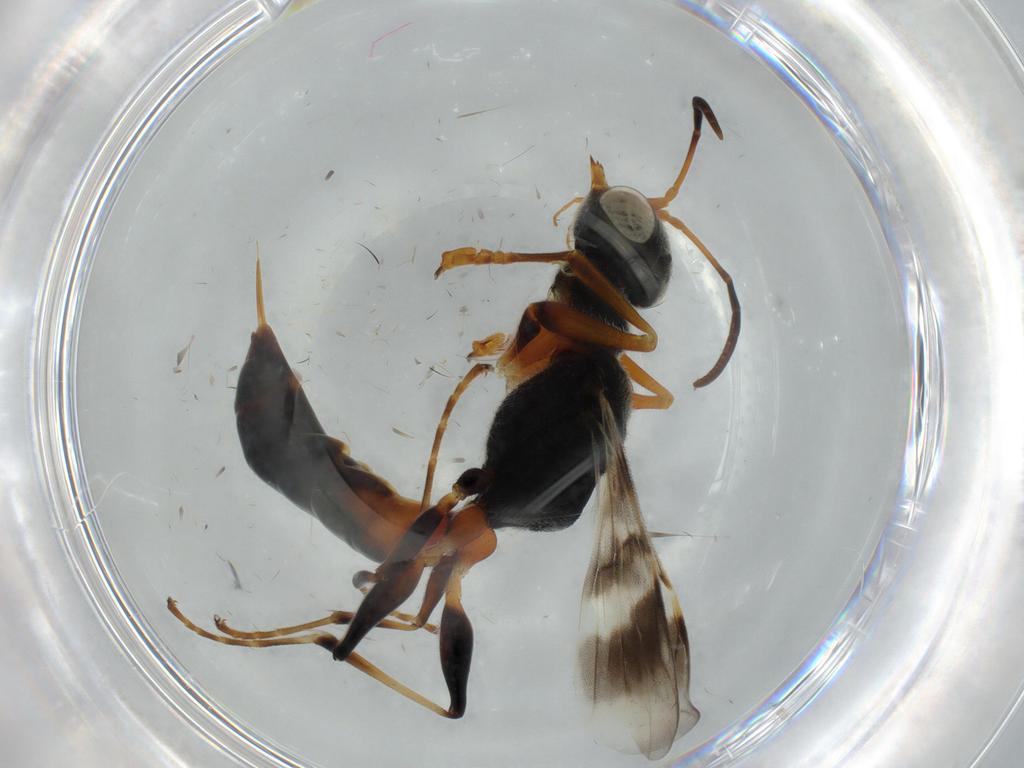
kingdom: Animalia
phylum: Arthropoda
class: Insecta
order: Hymenoptera
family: Dryinidae
